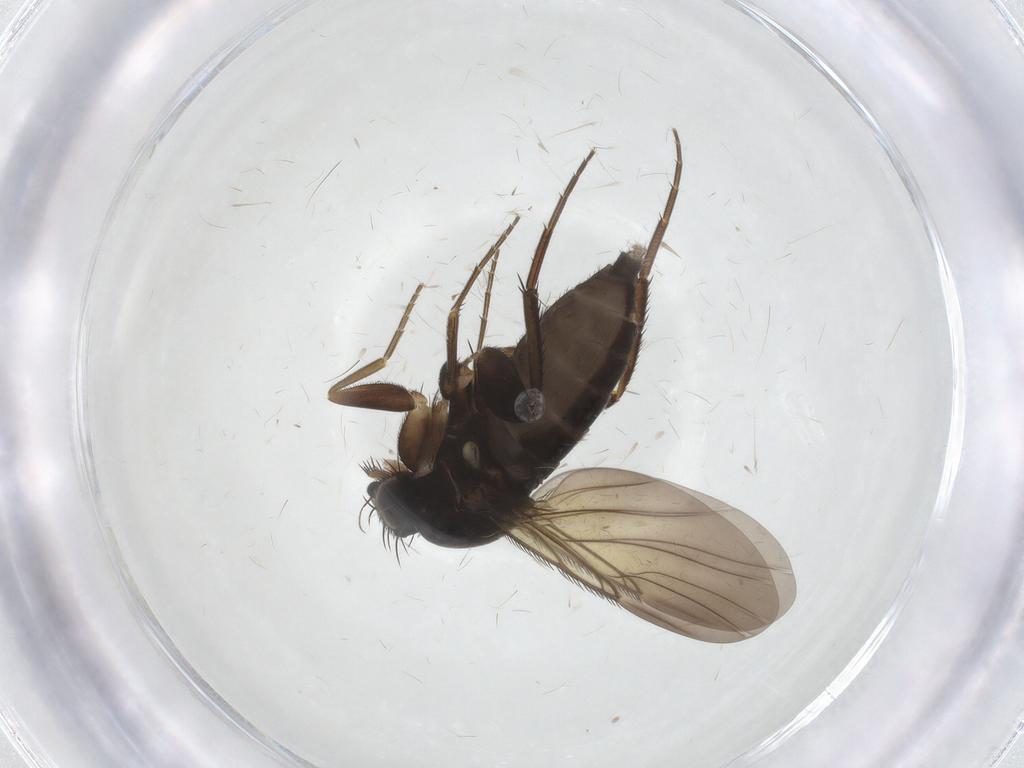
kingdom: Animalia
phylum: Arthropoda
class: Insecta
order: Diptera
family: Phoridae
